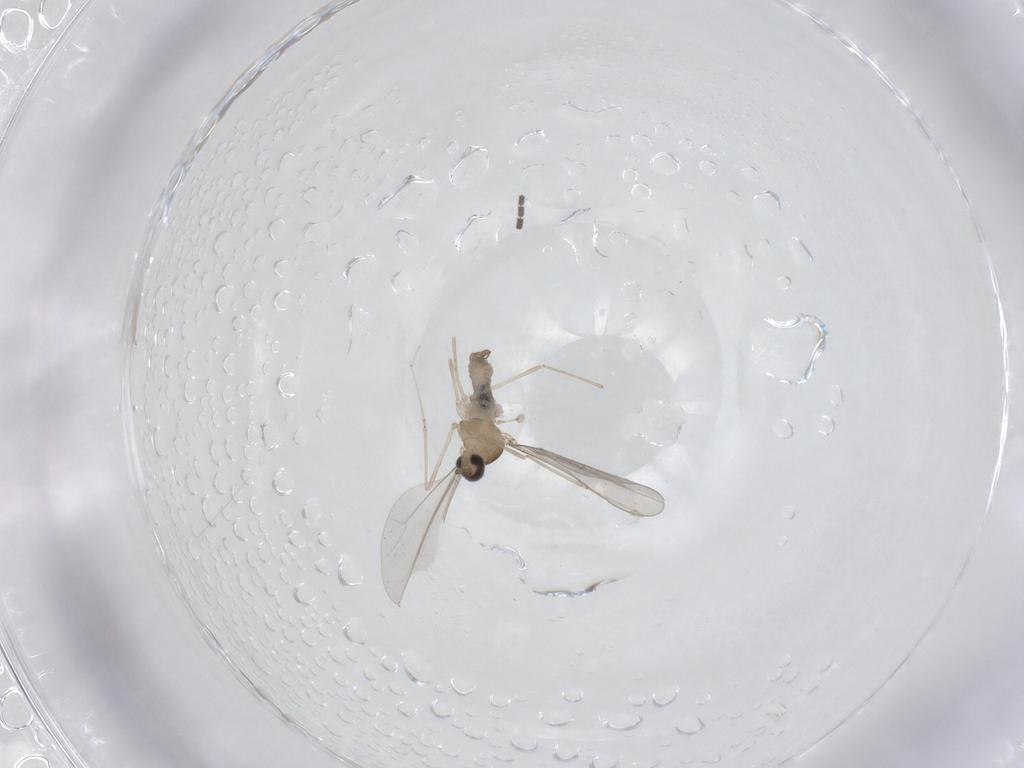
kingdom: Animalia
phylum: Arthropoda
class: Insecta
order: Diptera
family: Cecidomyiidae
